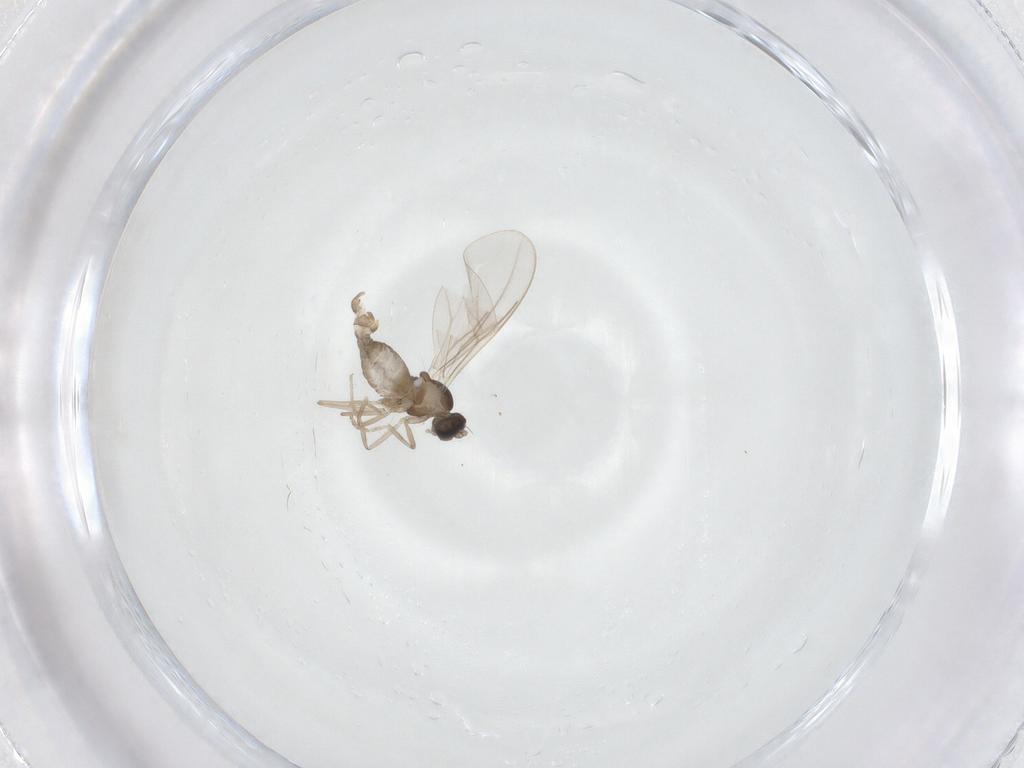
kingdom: Animalia
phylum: Arthropoda
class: Insecta
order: Diptera
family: Cecidomyiidae
